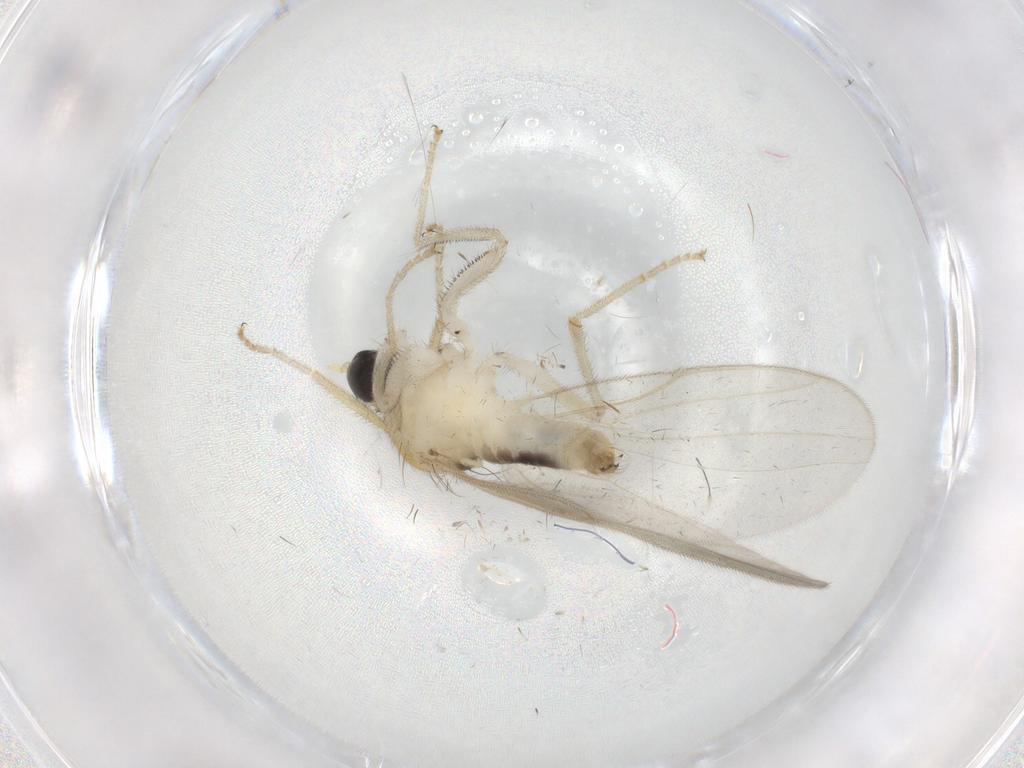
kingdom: Animalia
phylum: Arthropoda
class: Insecta
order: Diptera
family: Hybotidae
